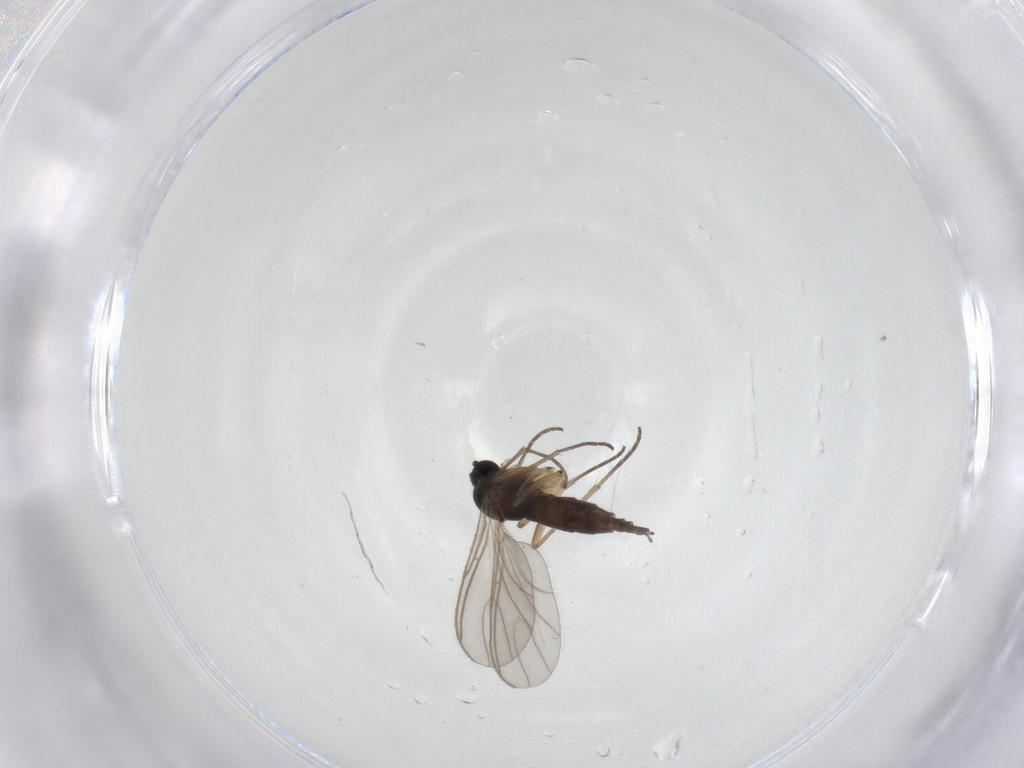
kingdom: Animalia
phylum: Arthropoda
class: Insecta
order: Diptera
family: Sciaridae
